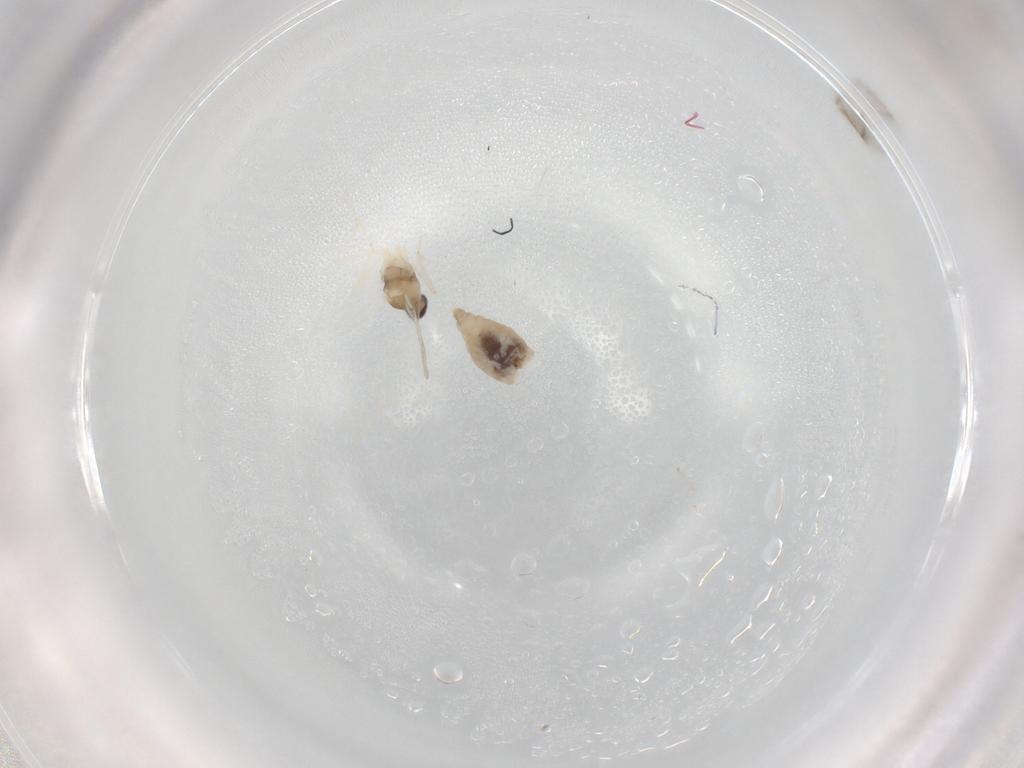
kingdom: Animalia
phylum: Arthropoda
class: Insecta
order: Diptera
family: Cecidomyiidae
